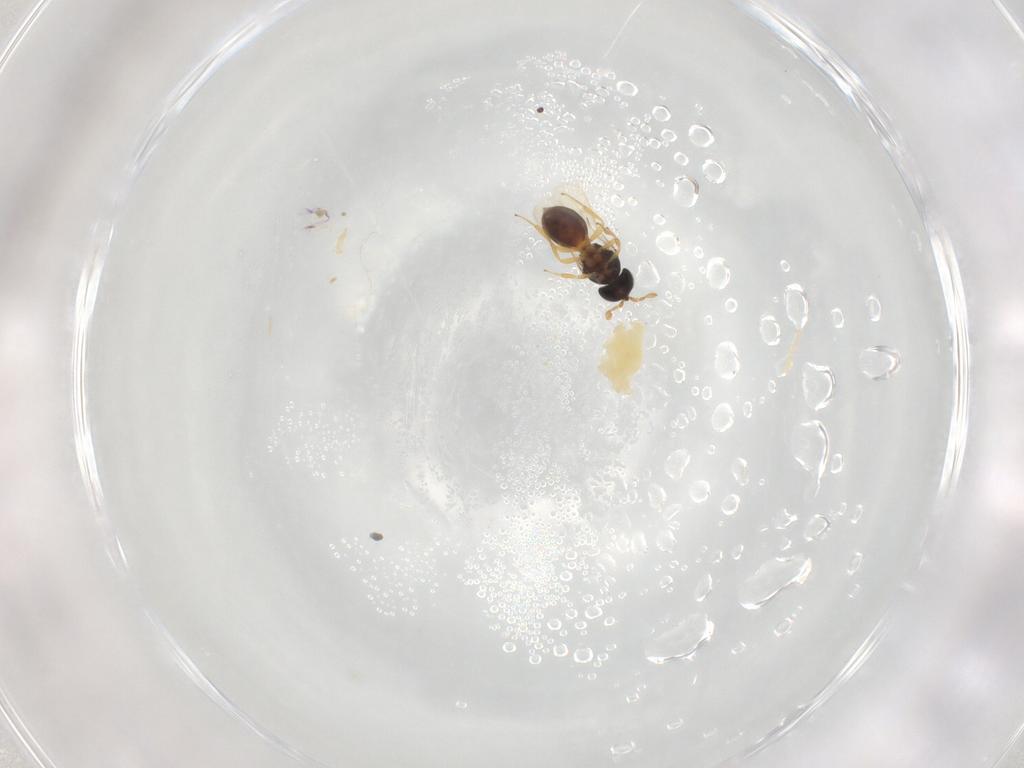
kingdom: Animalia
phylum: Arthropoda
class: Insecta
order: Hymenoptera
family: Scelionidae
